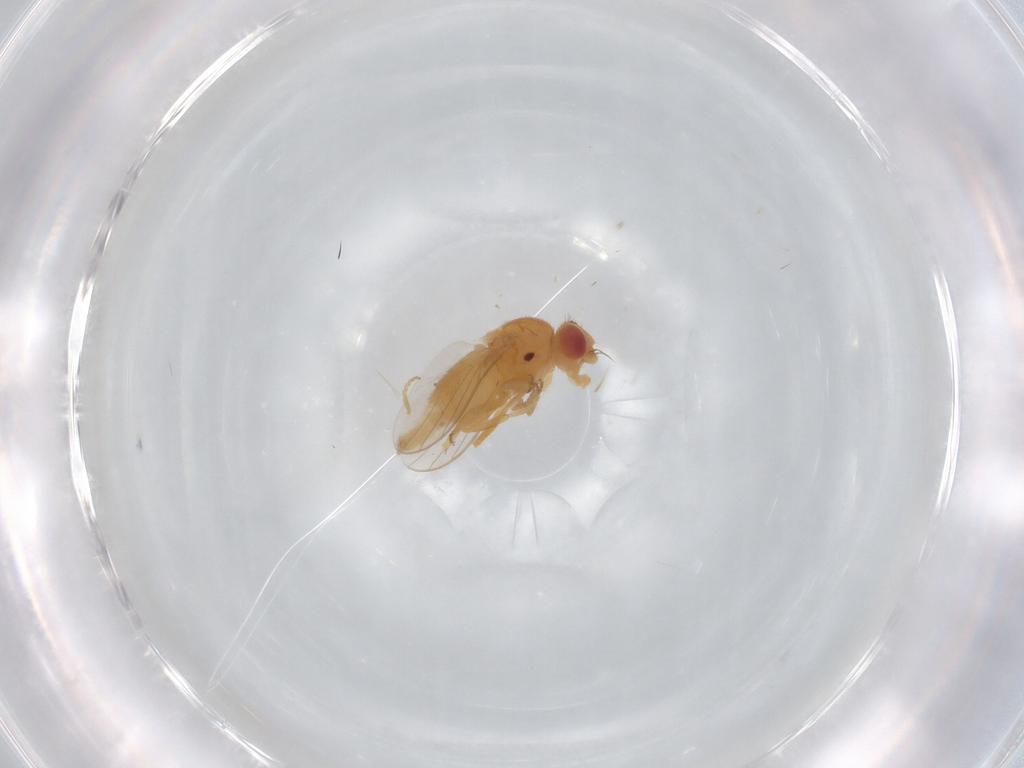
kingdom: Animalia
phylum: Arthropoda
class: Insecta
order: Diptera
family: Chloropidae
